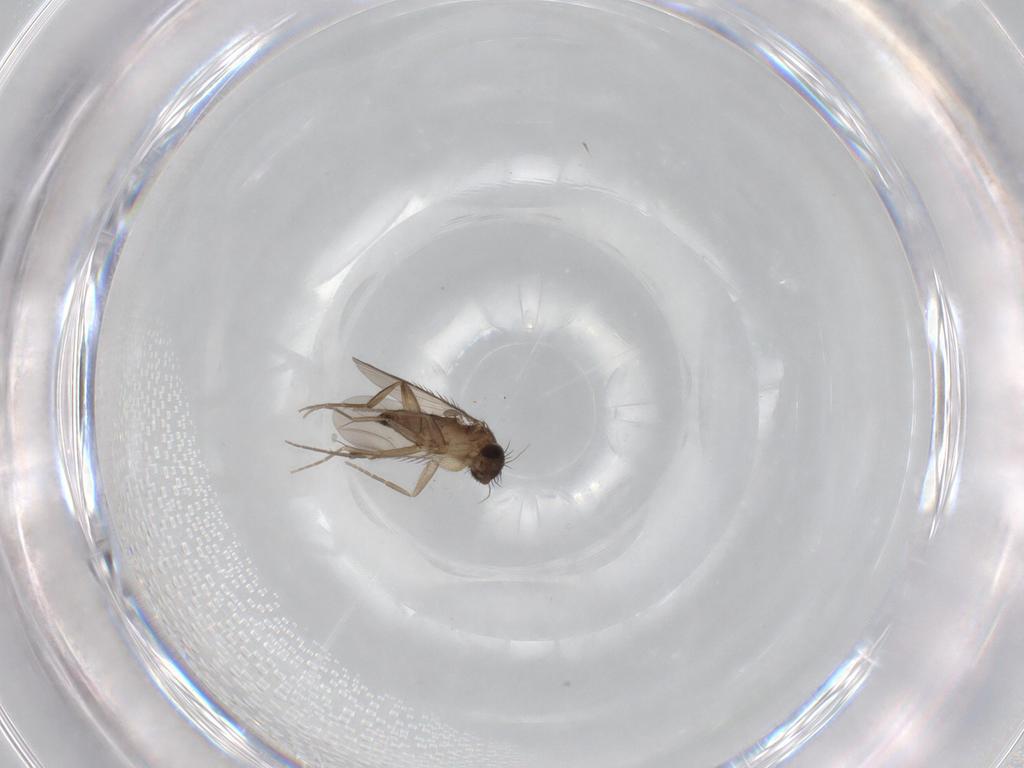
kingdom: Animalia
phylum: Arthropoda
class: Insecta
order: Diptera
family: Phoridae
